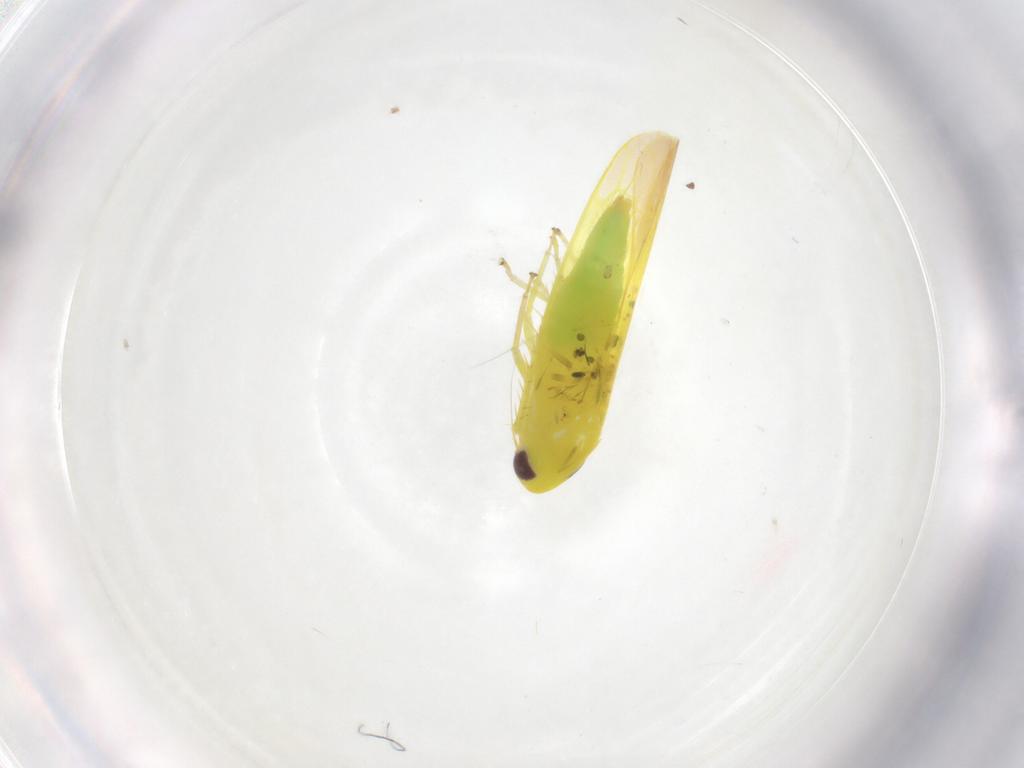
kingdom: Animalia
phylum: Arthropoda
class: Insecta
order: Hemiptera
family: Cicadellidae
